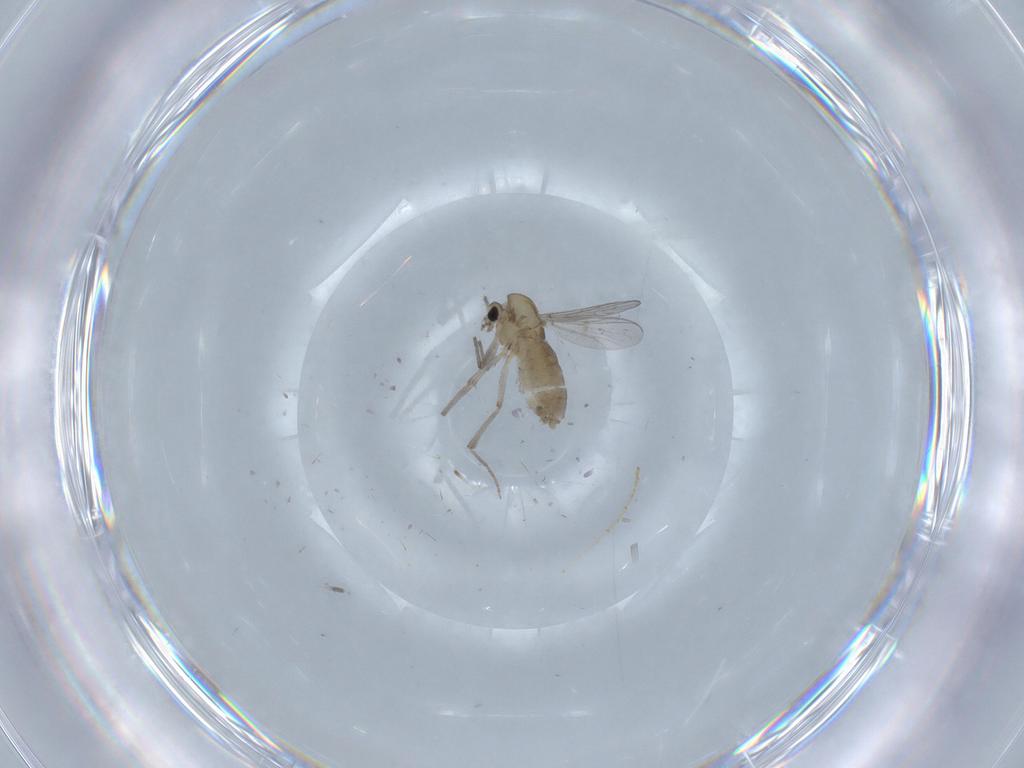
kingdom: Animalia
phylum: Arthropoda
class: Insecta
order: Diptera
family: Chironomidae
